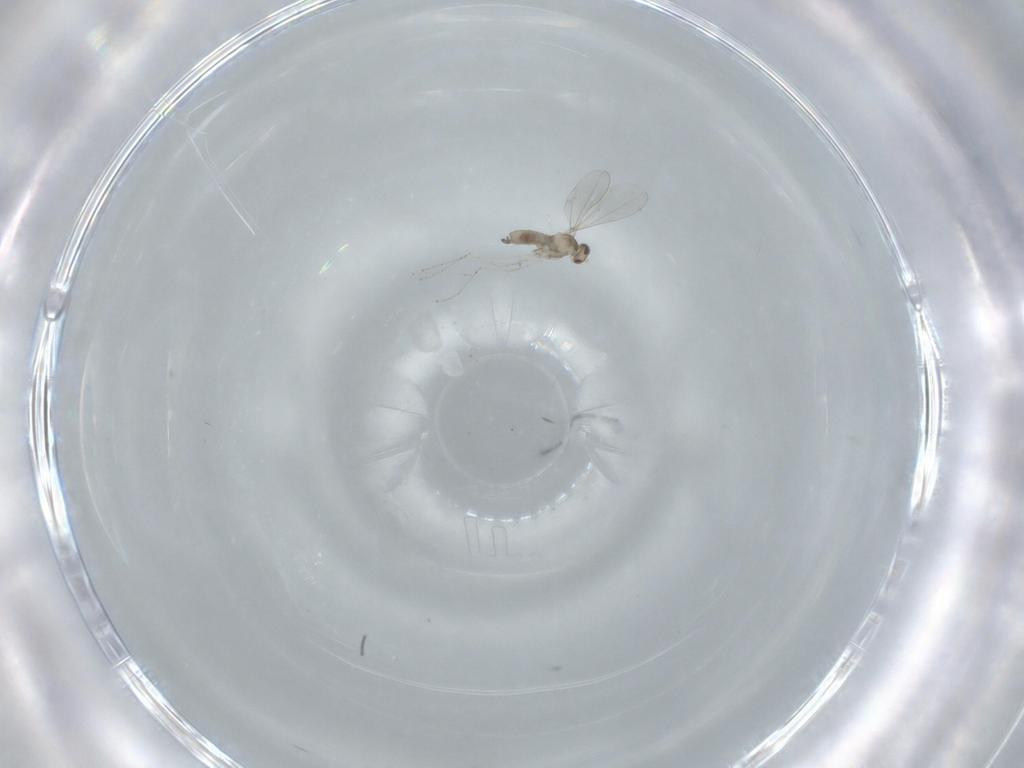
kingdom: Animalia
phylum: Arthropoda
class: Insecta
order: Diptera
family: Cecidomyiidae
